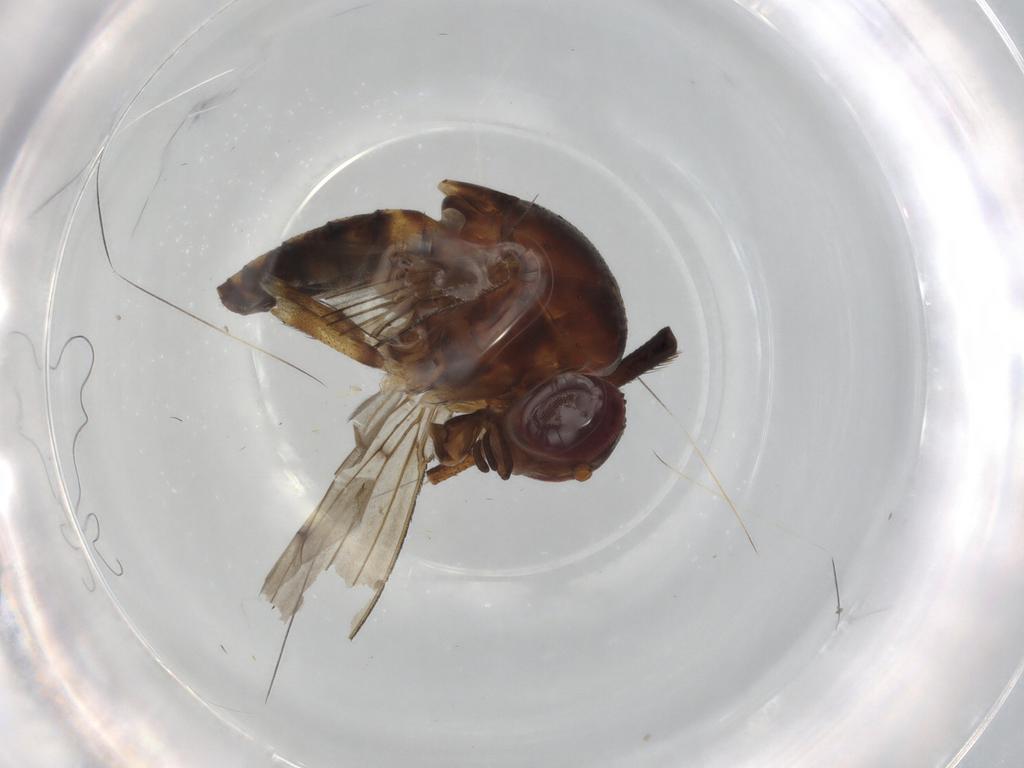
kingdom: Animalia
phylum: Arthropoda
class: Insecta
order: Diptera
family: Curtonotidae
